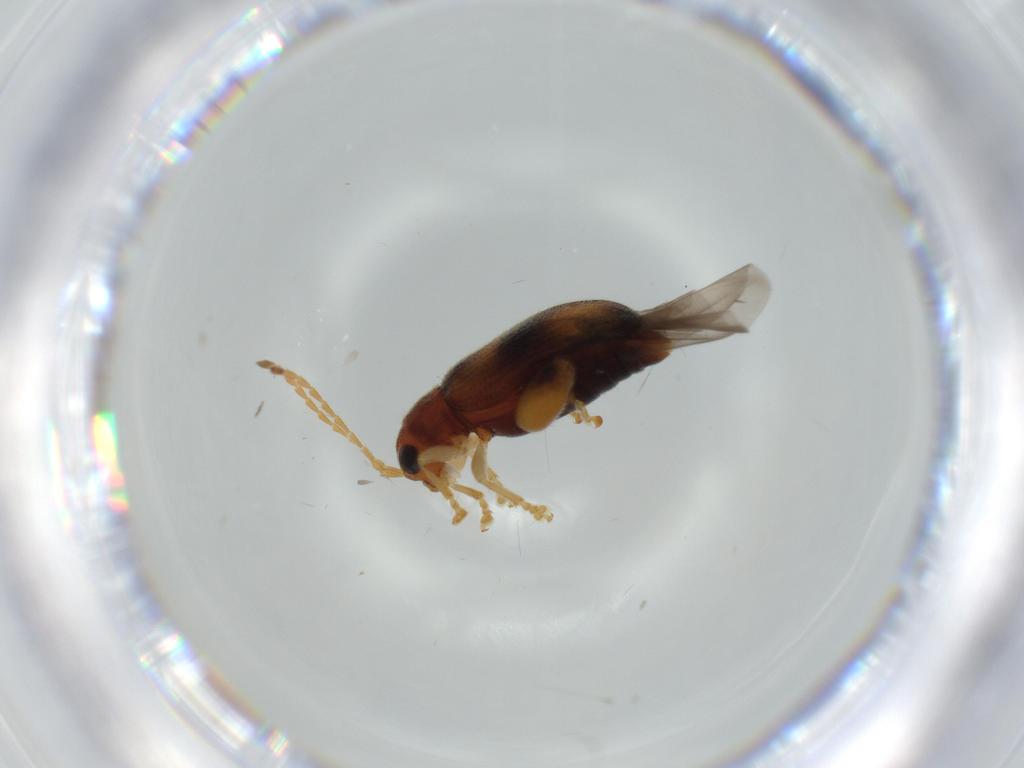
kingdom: Animalia
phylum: Arthropoda
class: Insecta
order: Coleoptera
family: Chrysomelidae
